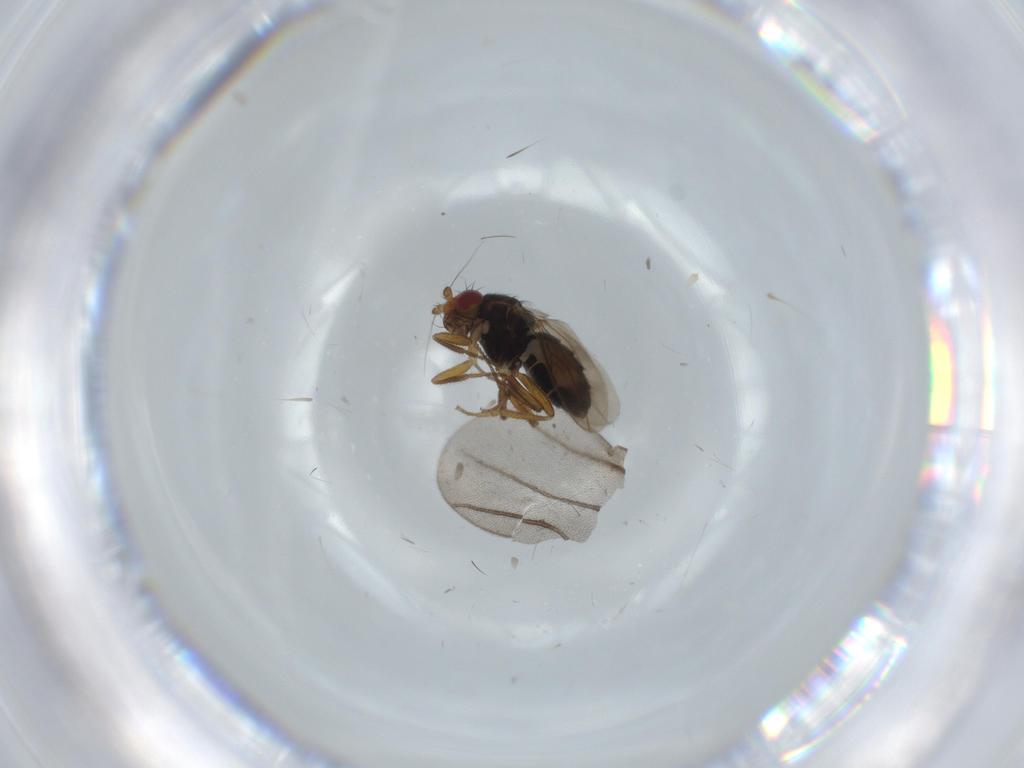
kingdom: Animalia
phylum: Arthropoda
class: Insecta
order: Diptera
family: Sphaeroceridae
